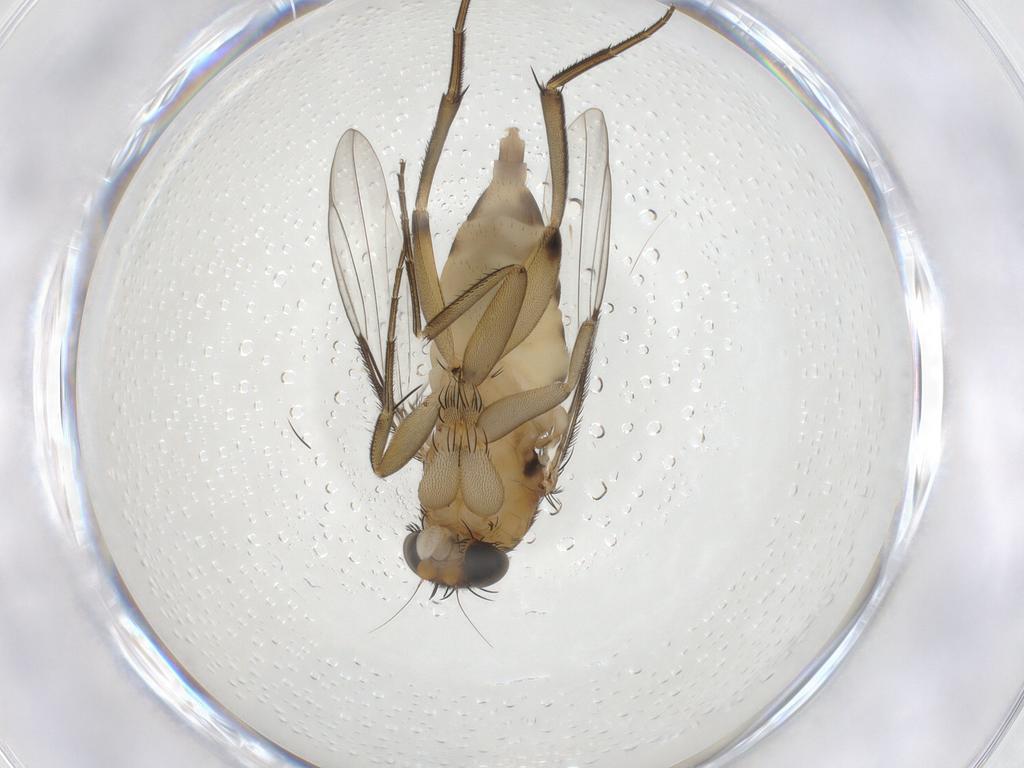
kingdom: Animalia
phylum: Arthropoda
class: Insecta
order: Diptera
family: Phoridae
